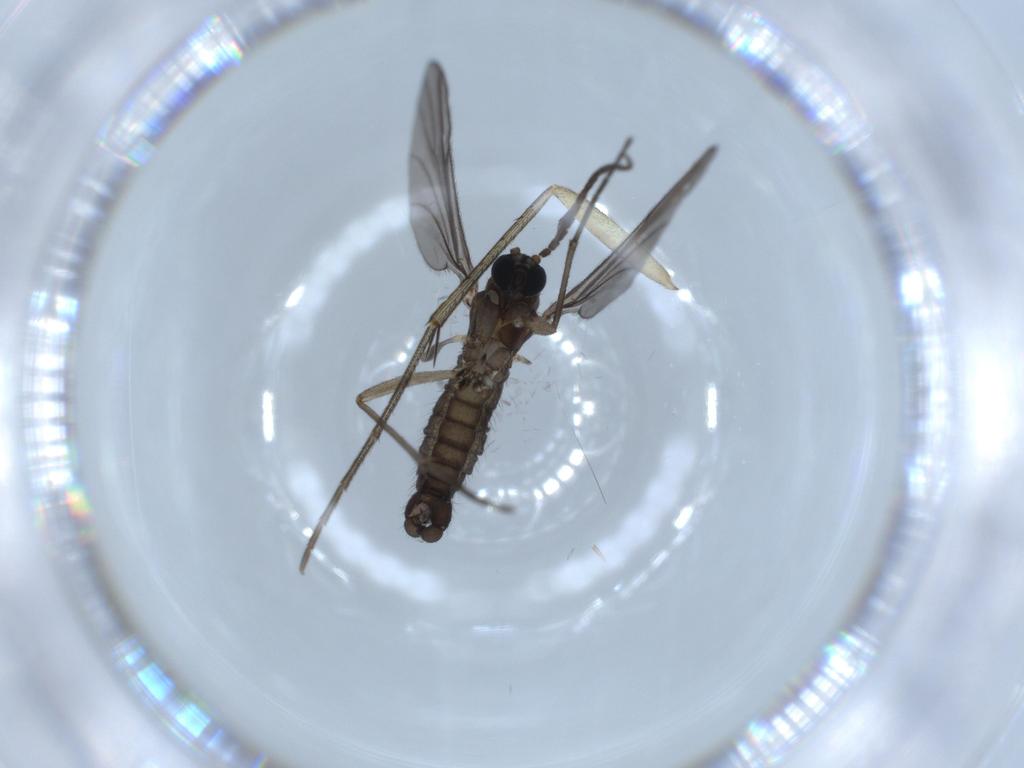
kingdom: Animalia
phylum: Arthropoda
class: Insecta
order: Diptera
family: Sciaridae
